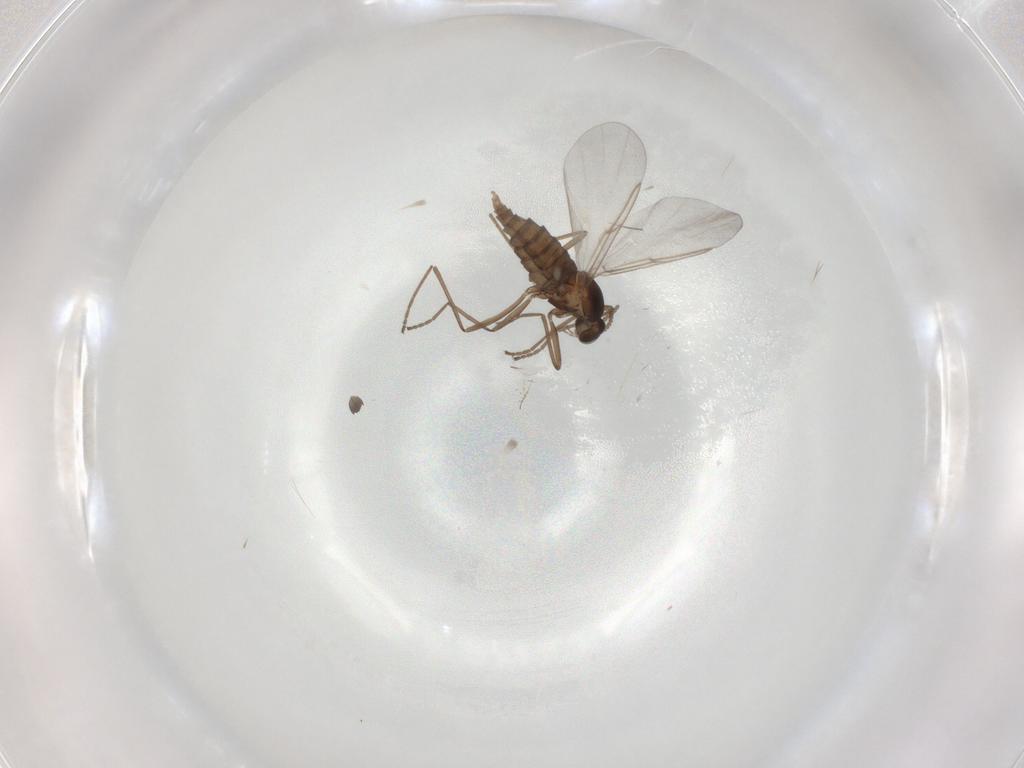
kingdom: Animalia
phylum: Arthropoda
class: Insecta
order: Diptera
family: Cecidomyiidae
